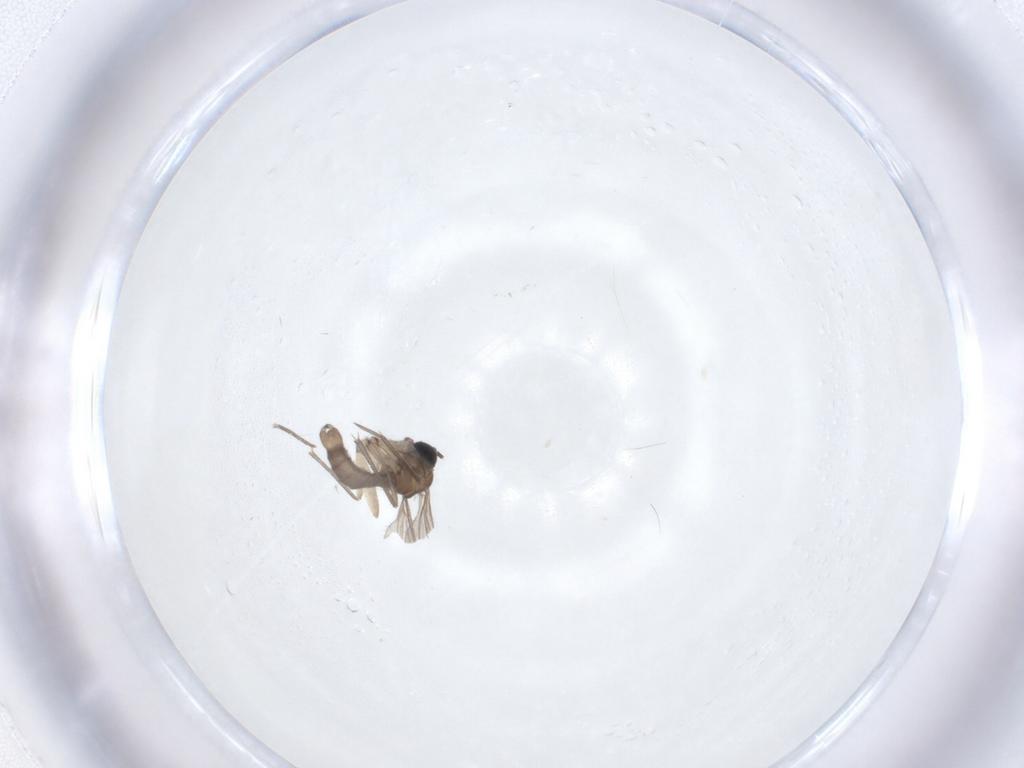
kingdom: Animalia
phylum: Arthropoda
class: Insecta
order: Diptera
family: Sciaridae
